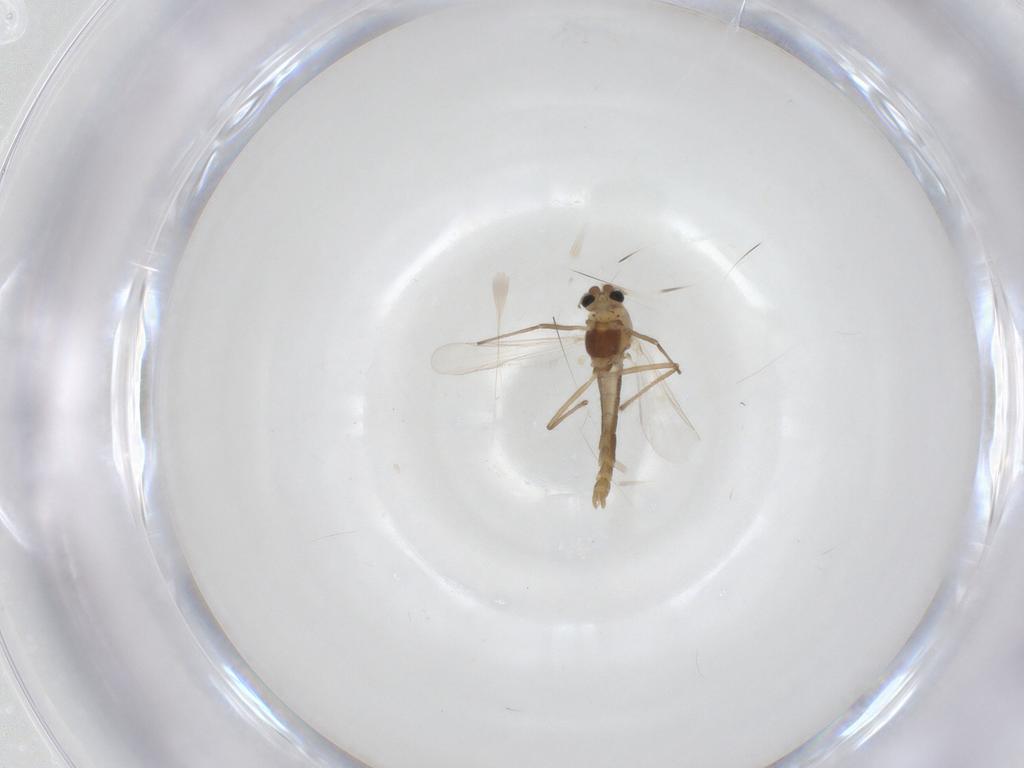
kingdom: Animalia
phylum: Arthropoda
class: Insecta
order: Diptera
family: Chironomidae
